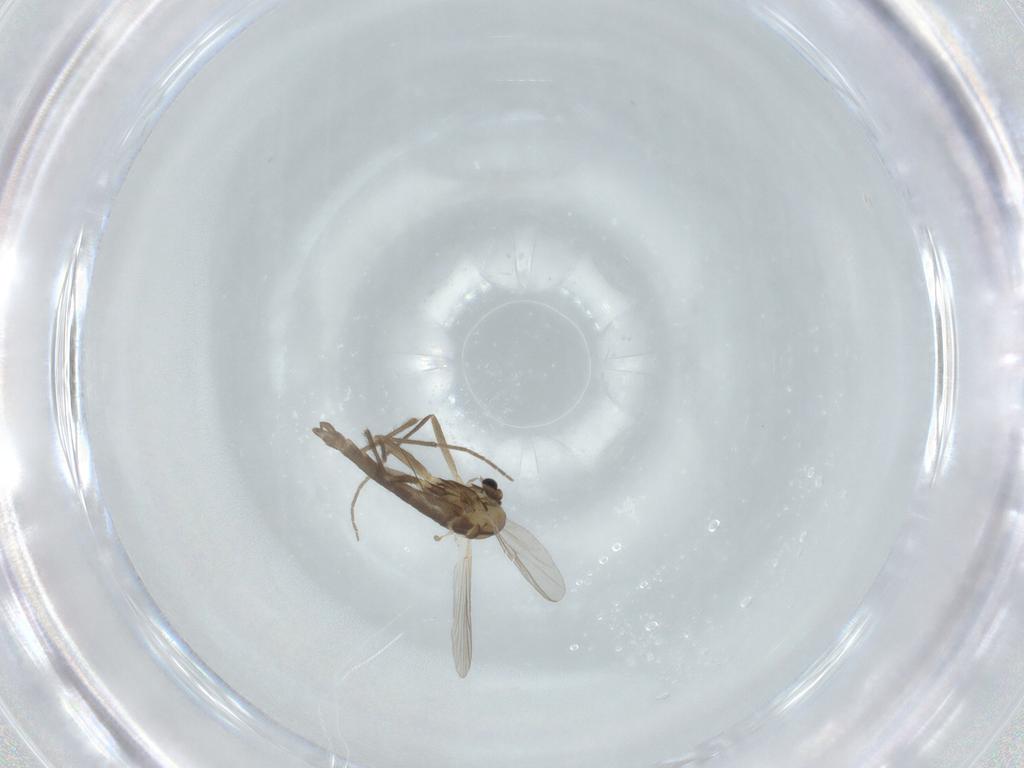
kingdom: Animalia
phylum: Arthropoda
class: Insecta
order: Diptera
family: Chironomidae
